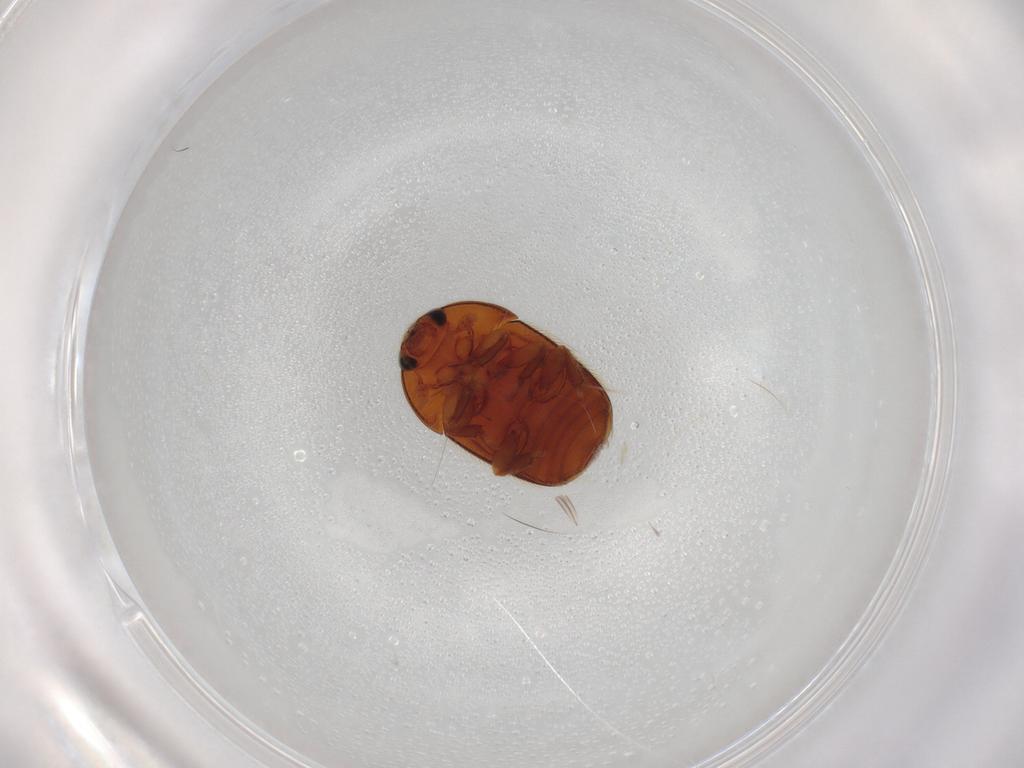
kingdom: Animalia
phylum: Arthropoda
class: Insecta
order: Coleoptera
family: Nitidulidae
